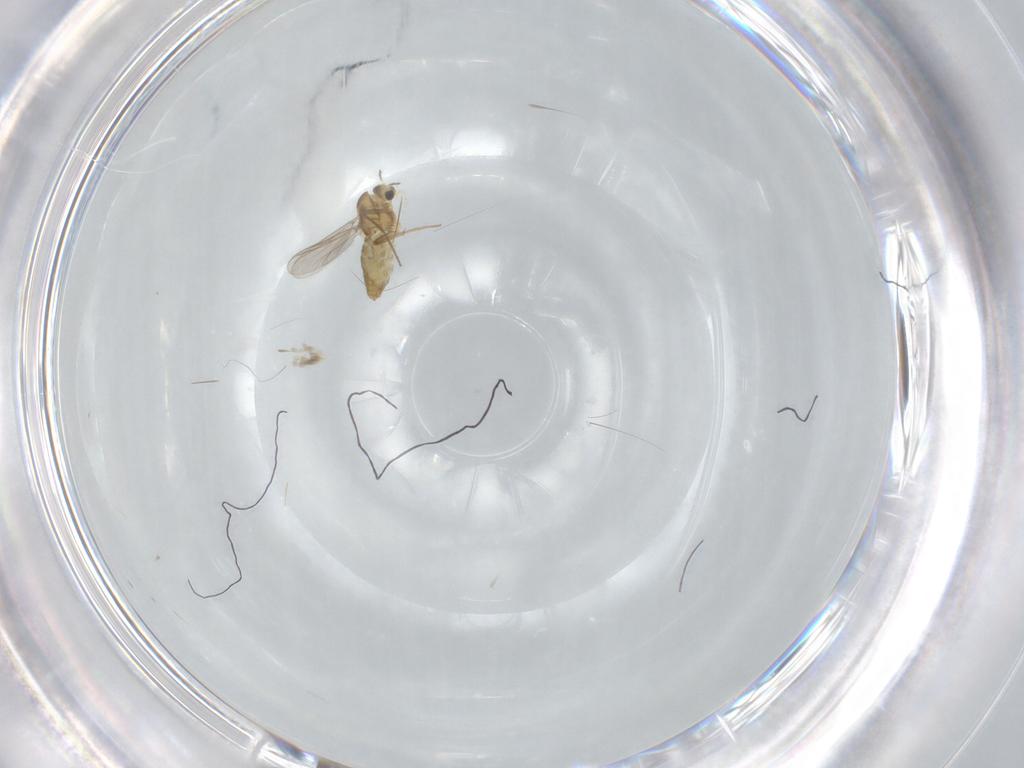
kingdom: Animalia
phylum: Arthropoda
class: Insecta
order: Diptera
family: Chironomidae
